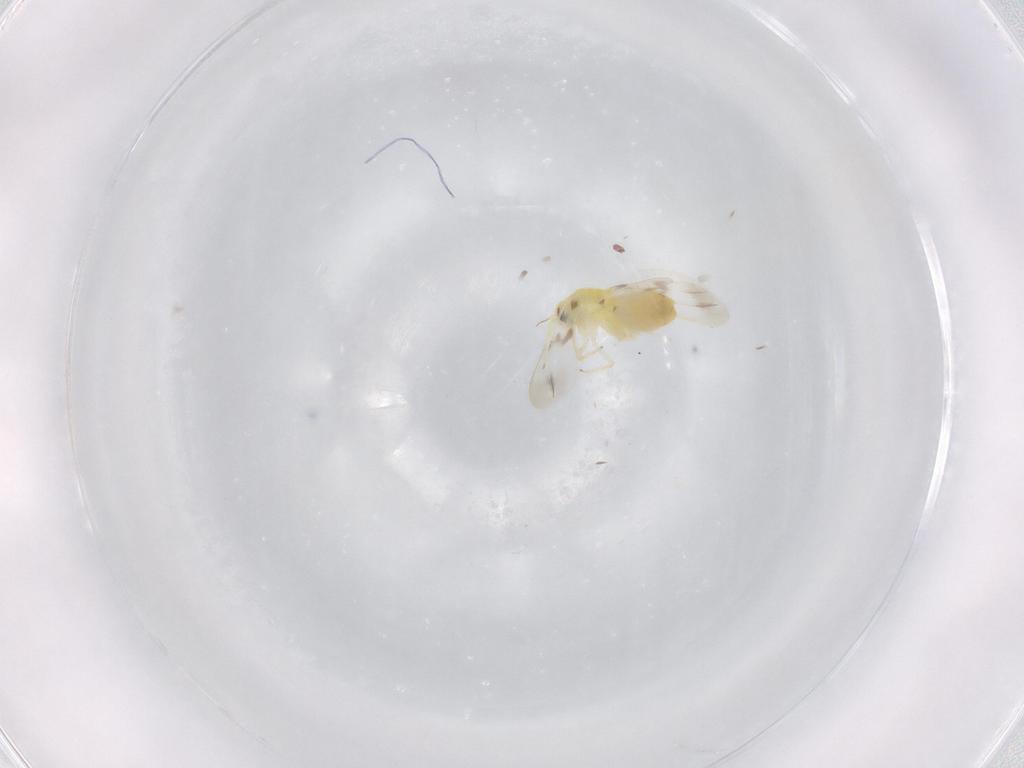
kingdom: Animalia
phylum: Arthropoda
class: Insecta
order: Hemiptera
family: Aleyrodidae
